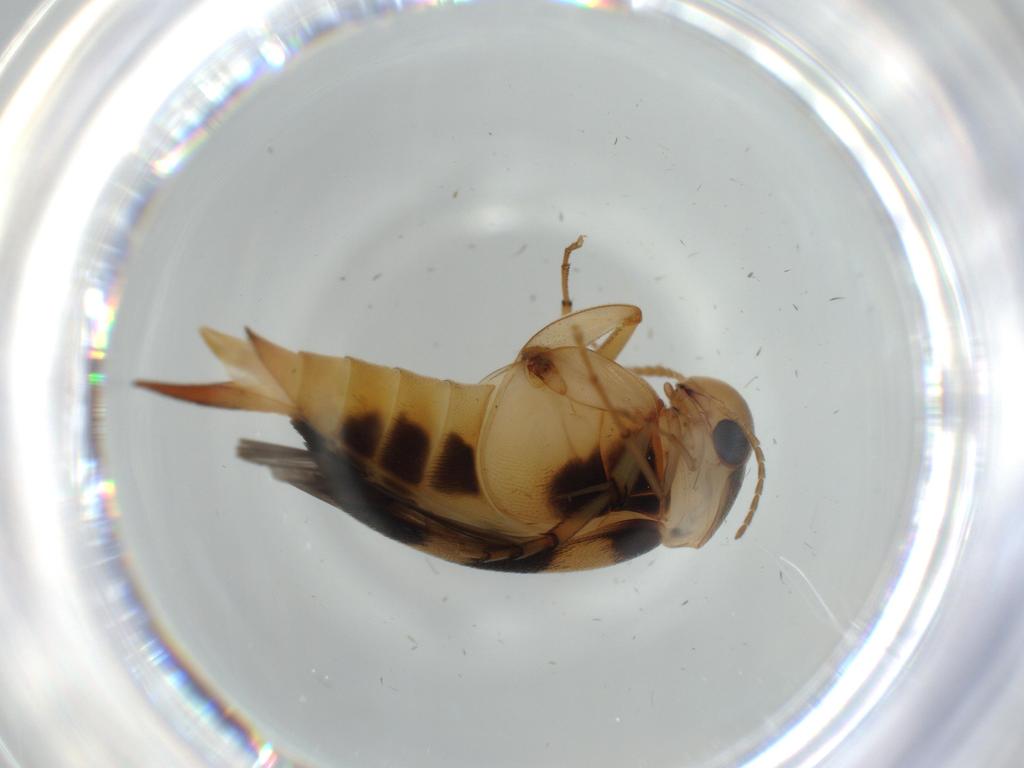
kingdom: Animalia
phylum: Arthropoda
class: Insecta
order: Coleoptera
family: Mordellidae
